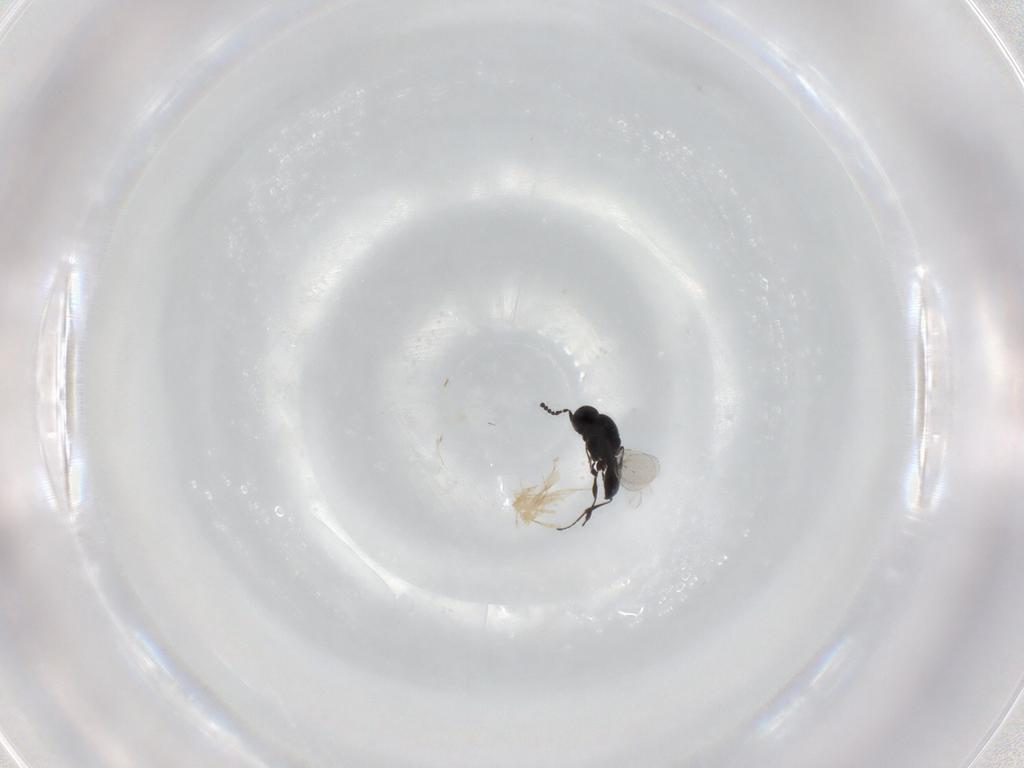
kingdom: Animalia
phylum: Arthropoda
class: Insecta
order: Hymenoptera
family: Platygastridae
